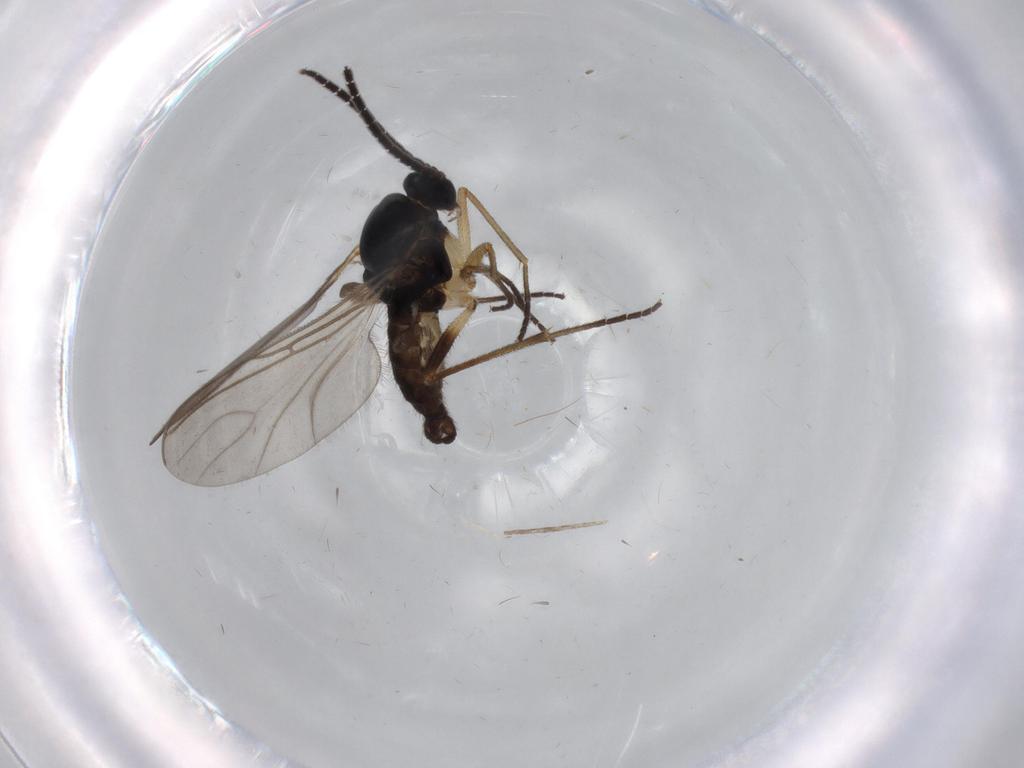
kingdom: Animalia
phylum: Arthropoda
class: Insecta
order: Diptera
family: Sciaridae
